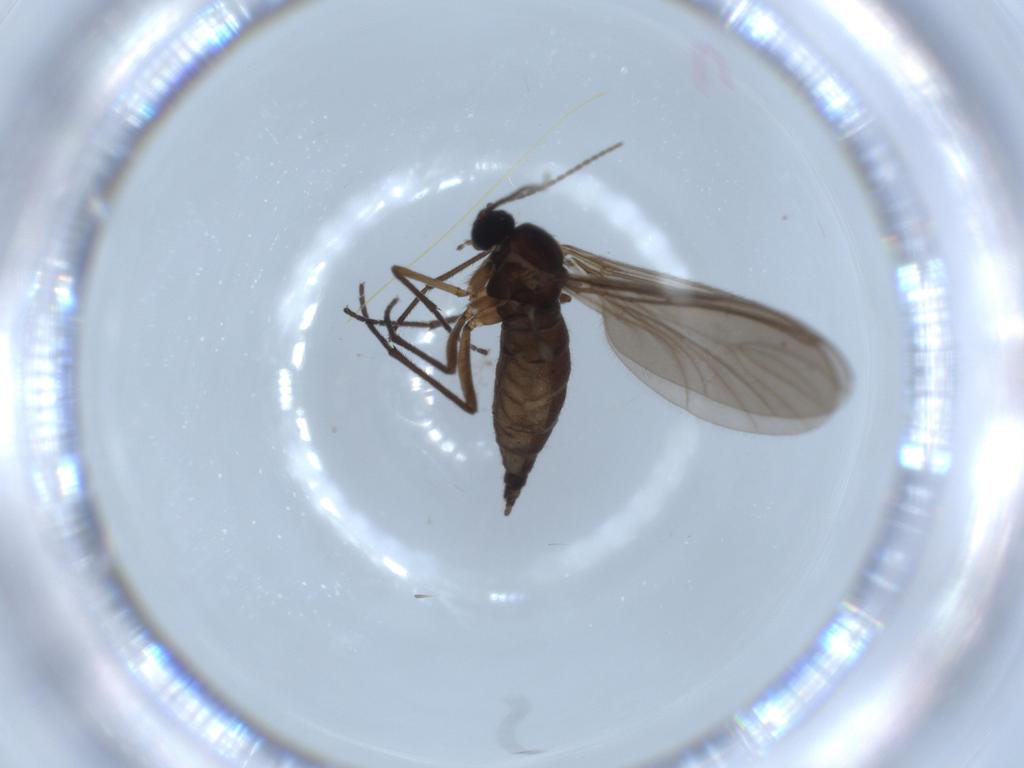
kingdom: Animalia
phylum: Arthropoda
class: Insecta
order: Diptera
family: Sciaridae
